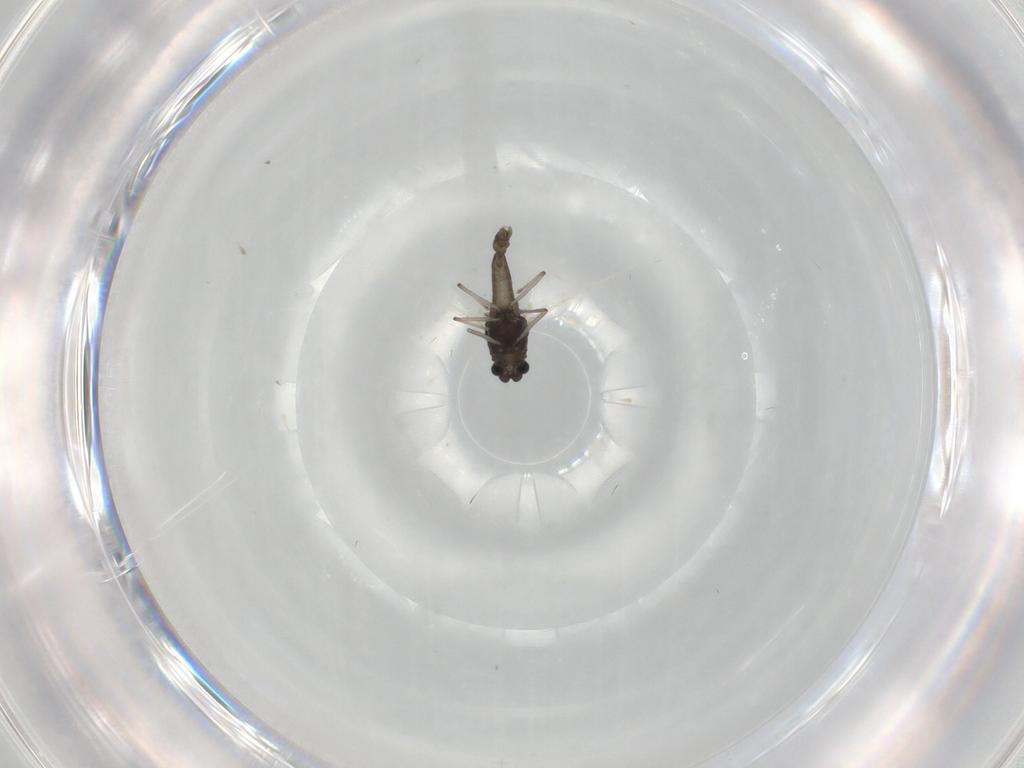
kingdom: Animalia
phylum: Arthropoda
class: Insecta
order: Diptera
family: Chironomidae
